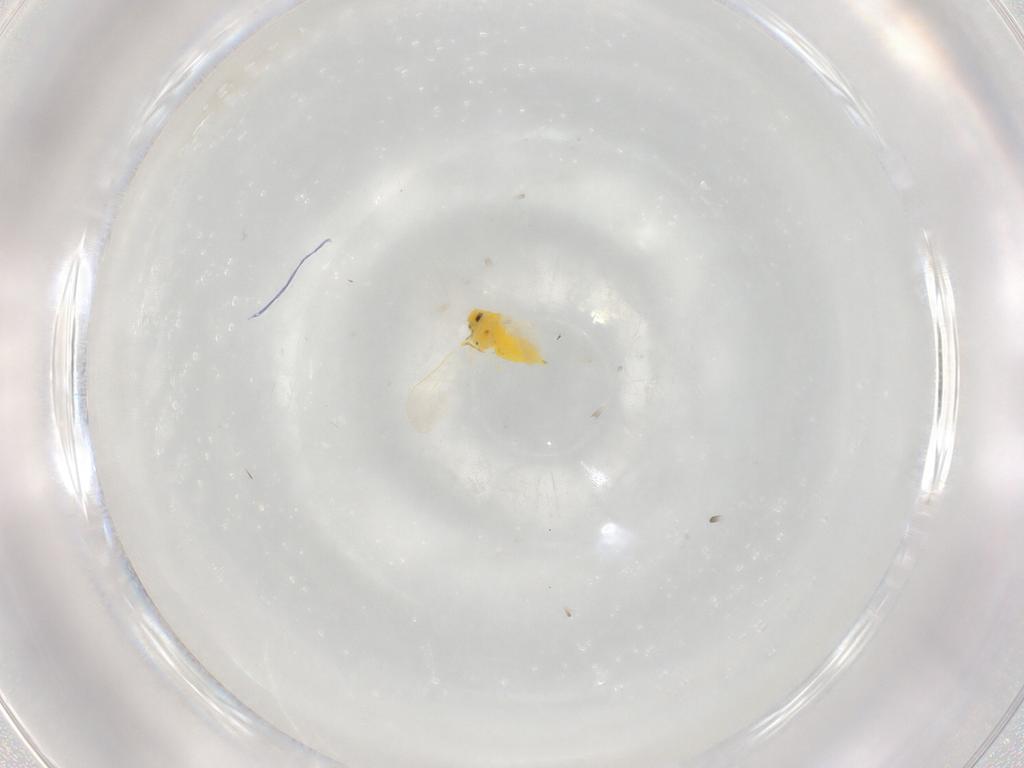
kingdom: Animalia
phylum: Arthropoda
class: Insecta
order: Hemiptera
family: Aleyrodidae
